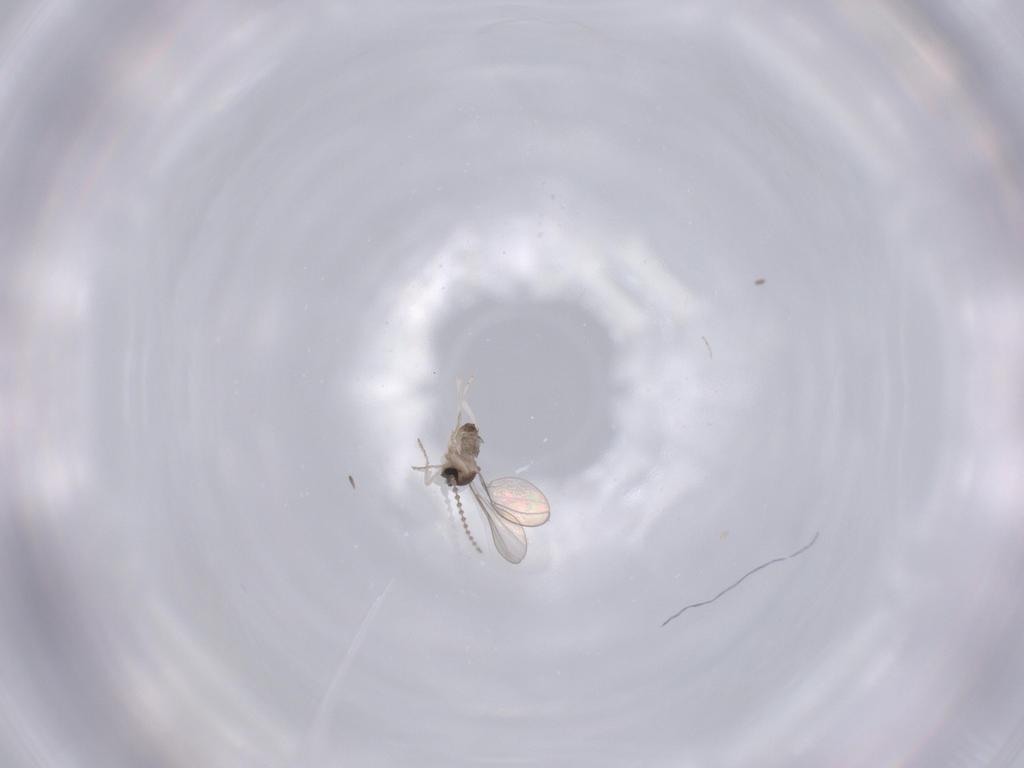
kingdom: Animalia
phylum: Arthropoda
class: Insecta
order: Diptera
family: Cecidomyiidae
